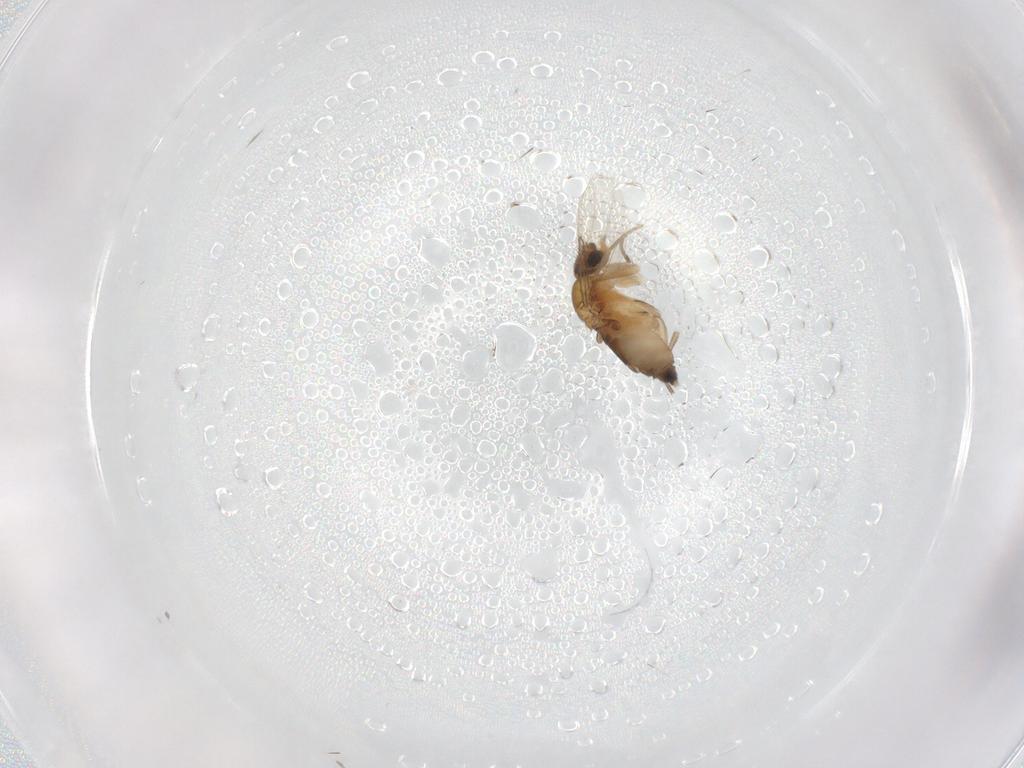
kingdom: Animalia
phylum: Arthropoda
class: Insecta
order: Diptera
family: Phoridae
